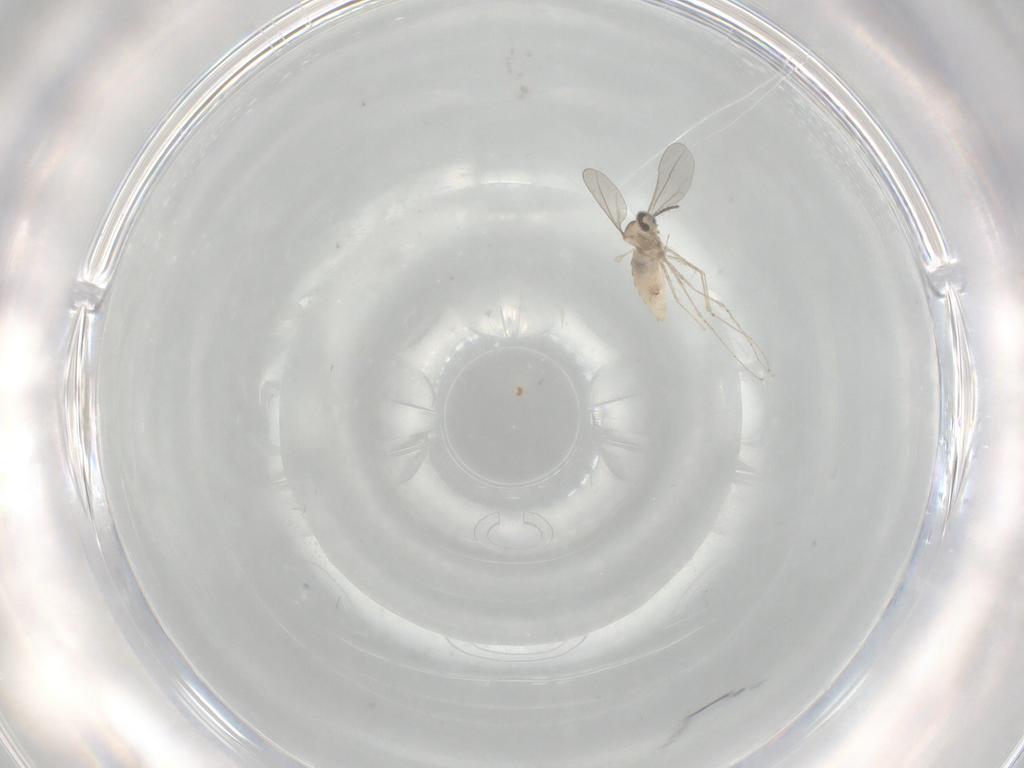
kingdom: Animalia
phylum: Arthropoda
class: Insecta
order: Diptera
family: Cecidomyiidae
